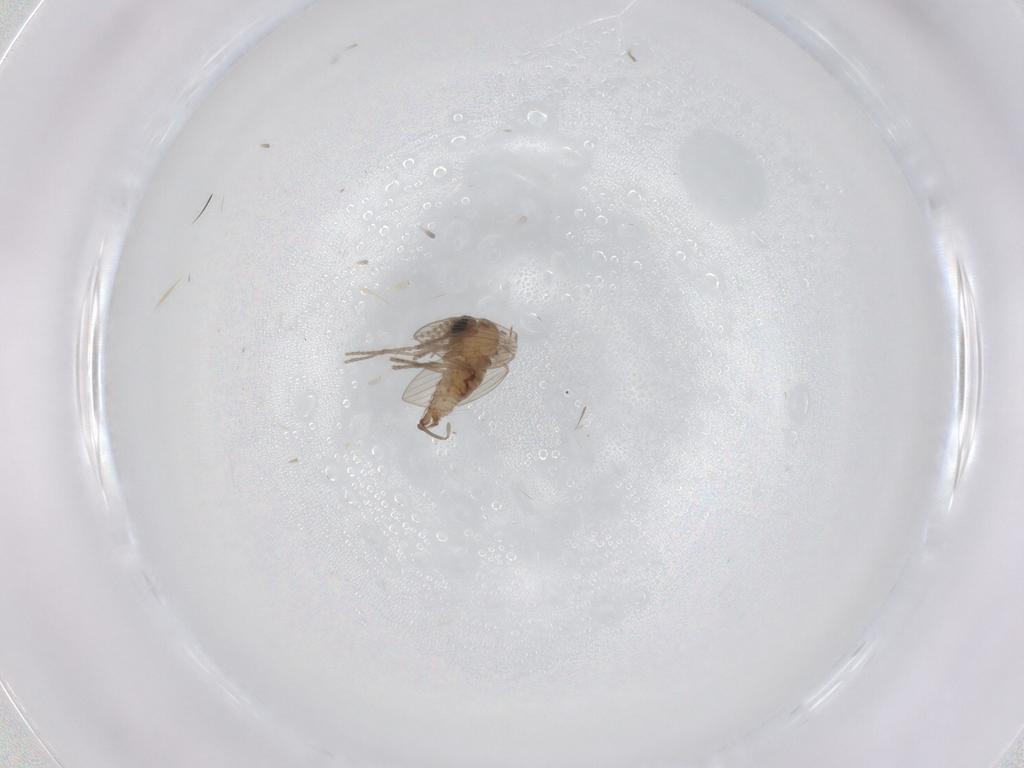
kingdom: Animalia
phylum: Arthropoda
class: Insecta
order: Diptera
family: Psychodidae
